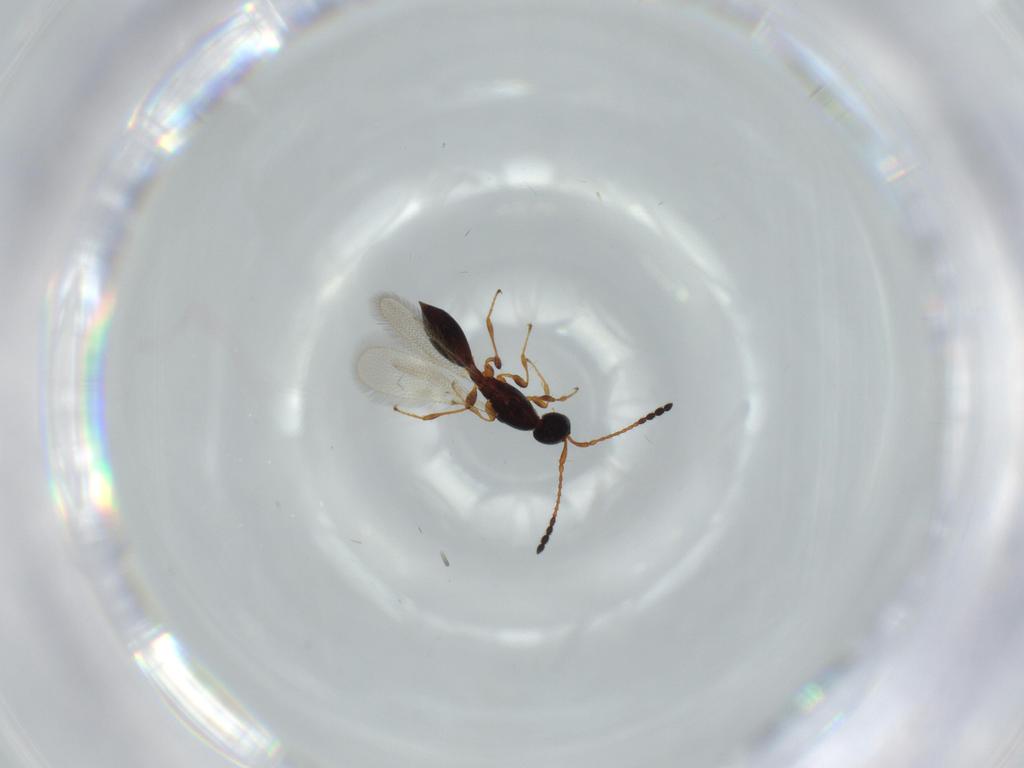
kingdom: Animalia
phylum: Arthropoda
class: Insecta
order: Hymenoptera
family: Diapriidae
